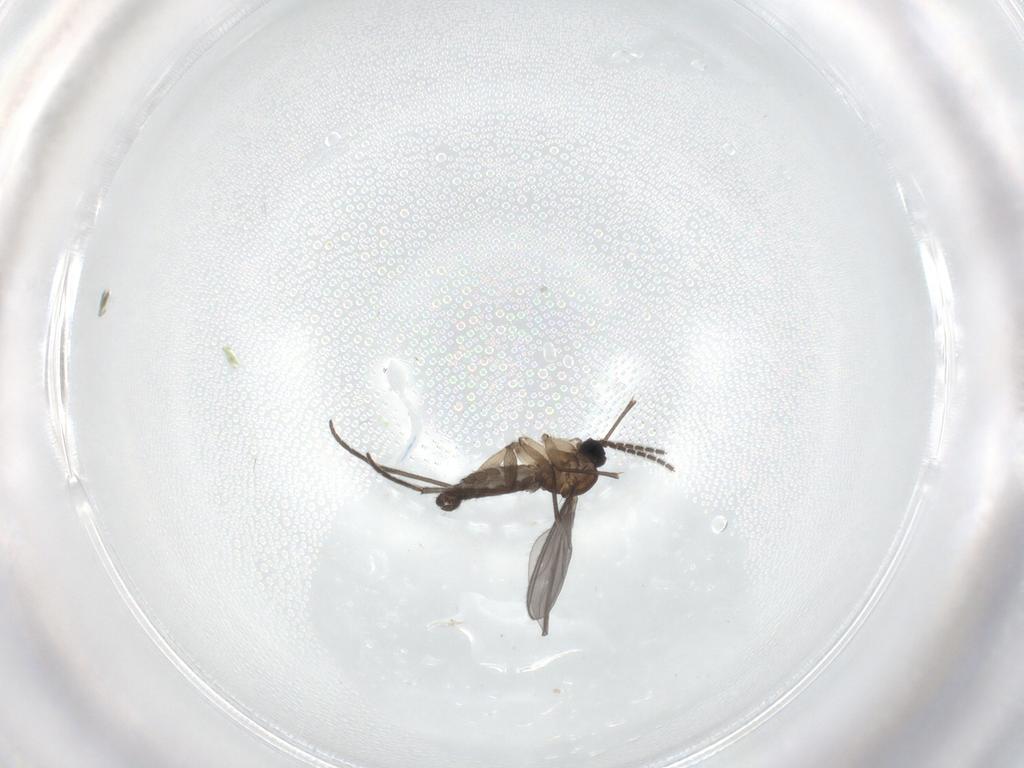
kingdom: Animalia
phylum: Arthropoda
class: Insecta
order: Diptera
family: Sciaridae
